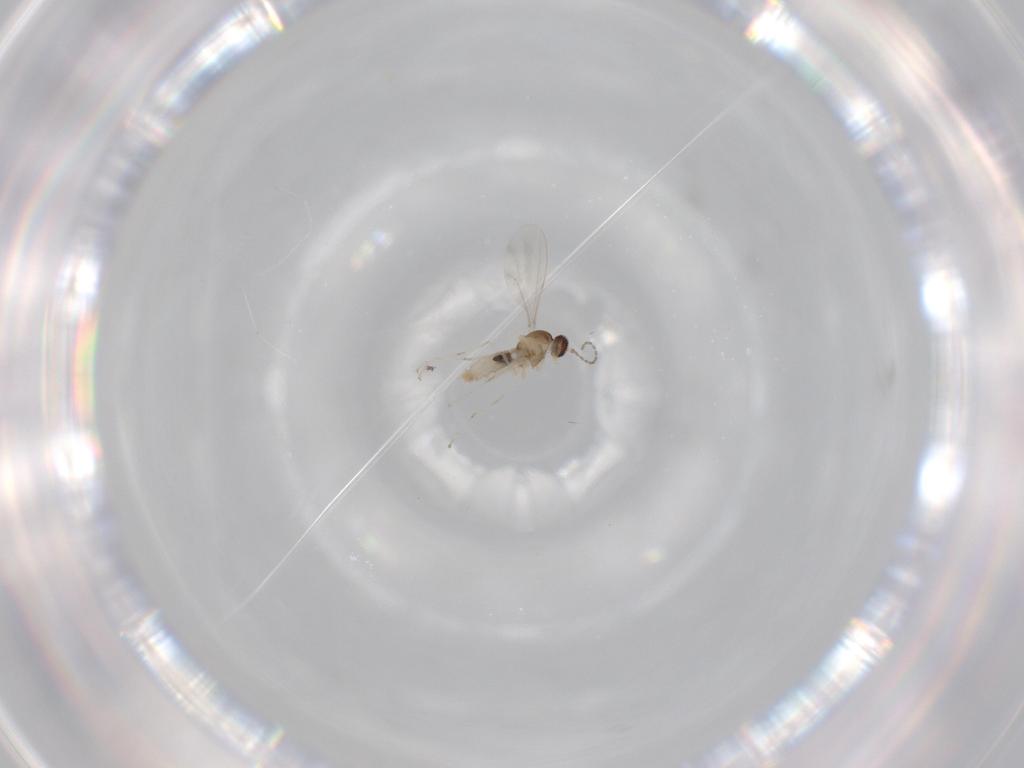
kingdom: Animalia
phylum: Arthropoda
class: Insecta
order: Diptera
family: Cecidomyiidae
